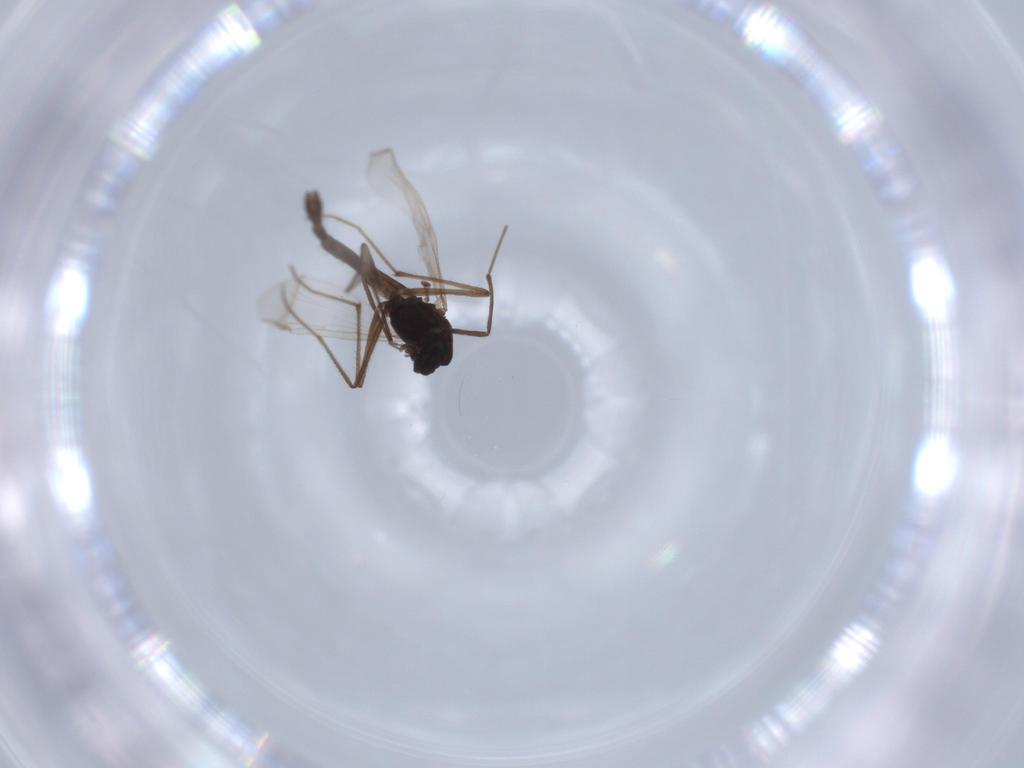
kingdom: Animalia
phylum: Arthropoda
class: Insecta
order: Diptera
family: Chironomidae
